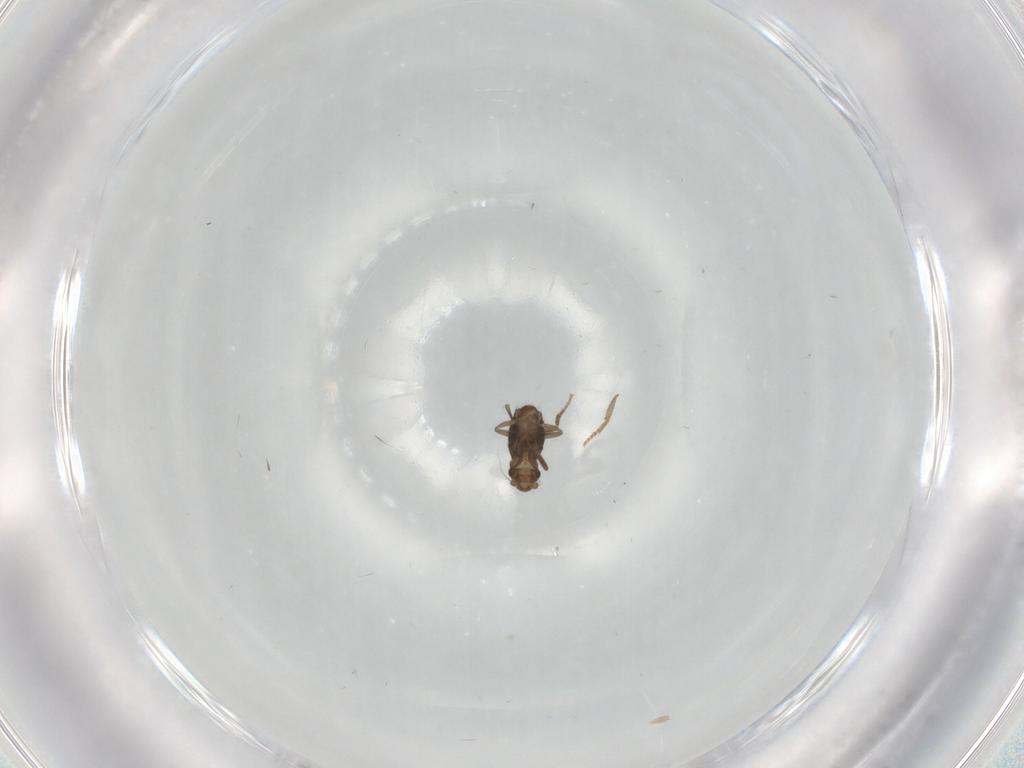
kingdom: Animalia
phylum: Arthropoda
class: Insecta
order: Diptera
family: Phoridae
